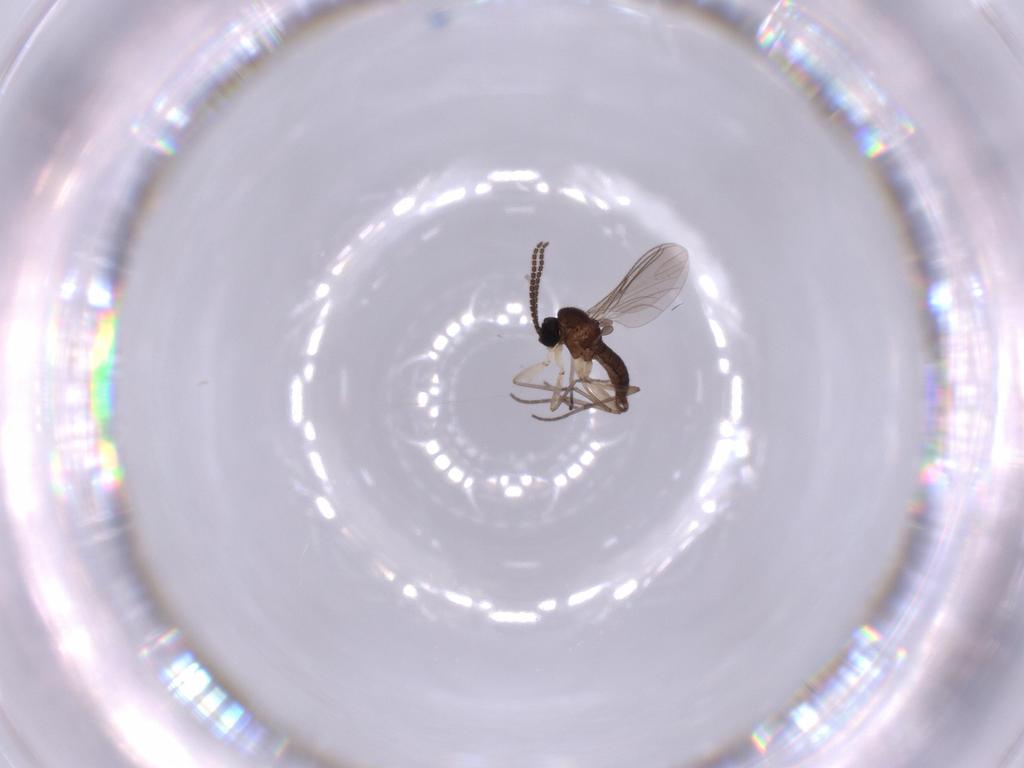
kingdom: Animalia
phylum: Arthropoda
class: Insecta
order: Diptera
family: Sciaridae
